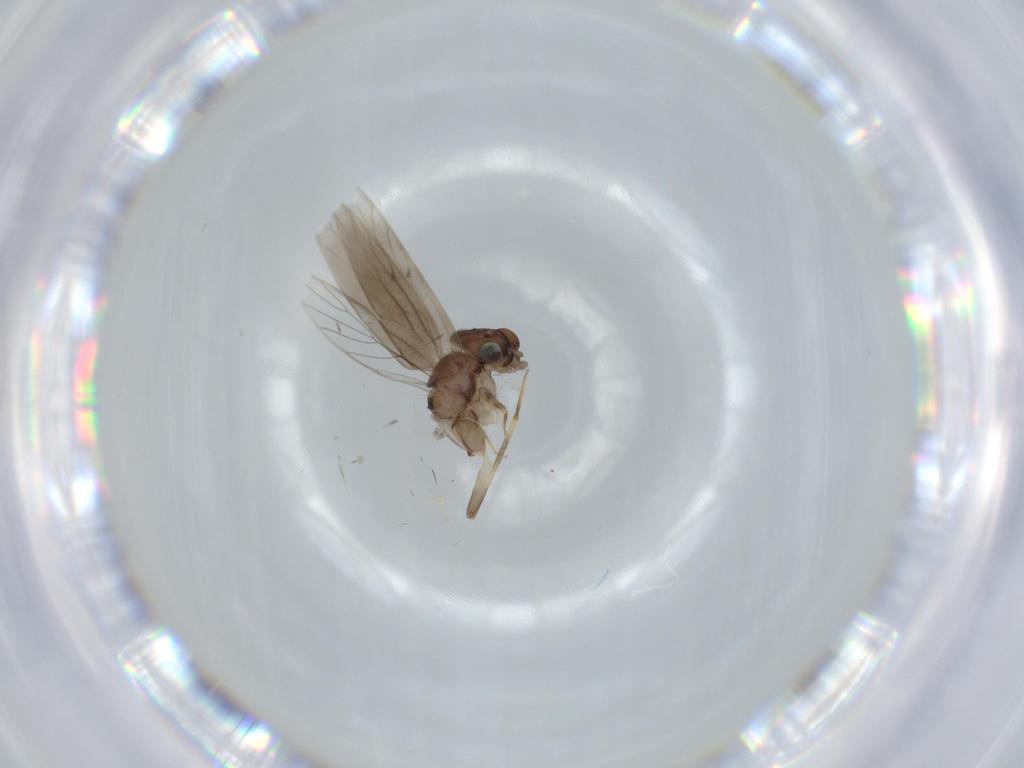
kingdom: Animalia
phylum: Arthropoda
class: Insecta
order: Psocodea
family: Lepidopsocidae
